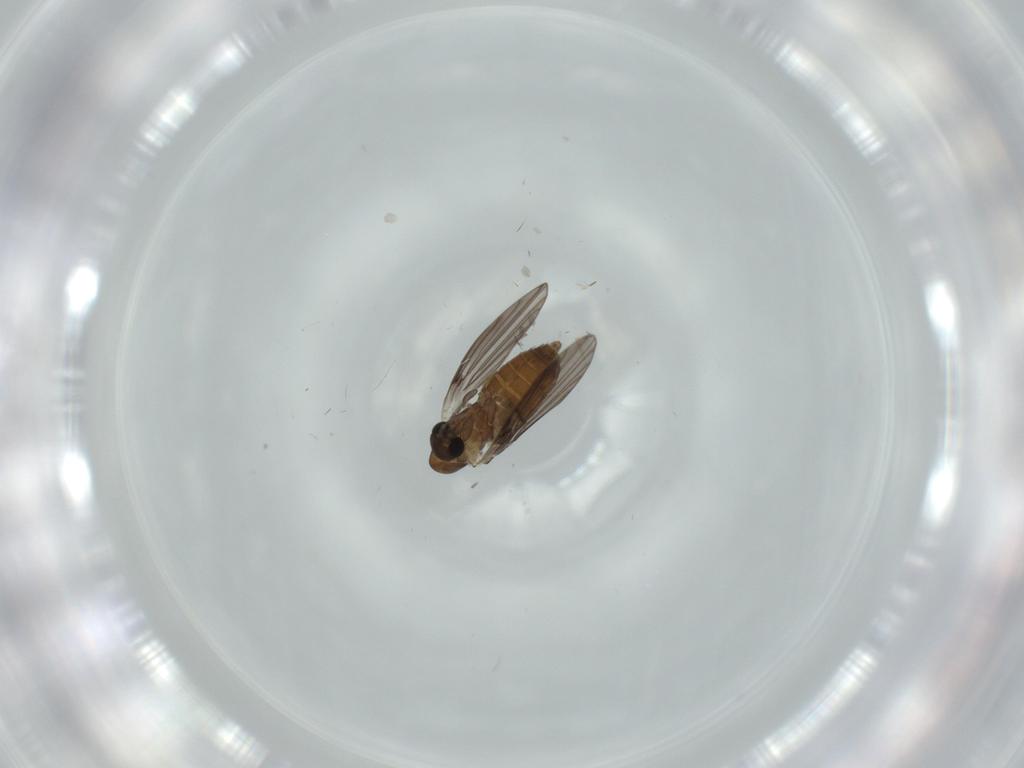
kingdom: Animalia
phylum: Arthropoda
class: Insecta
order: Diptera
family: Psychodidae
